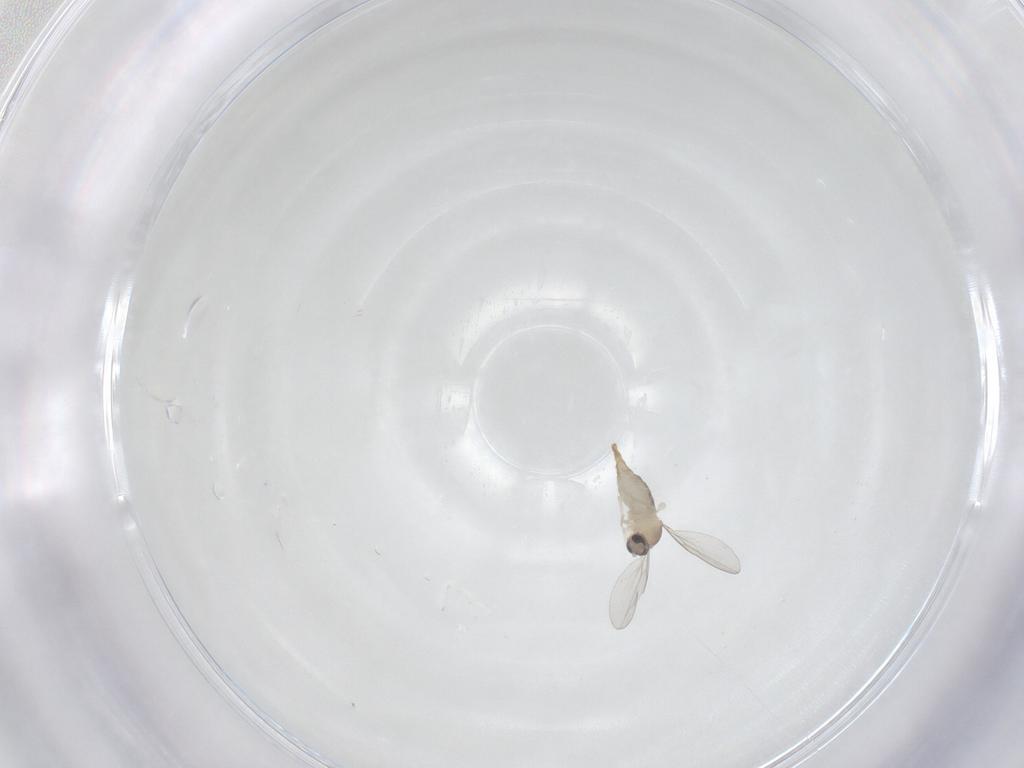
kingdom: Animalia
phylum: Arthropoda
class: Insecta
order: Diptera
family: Cecidomyiidae
